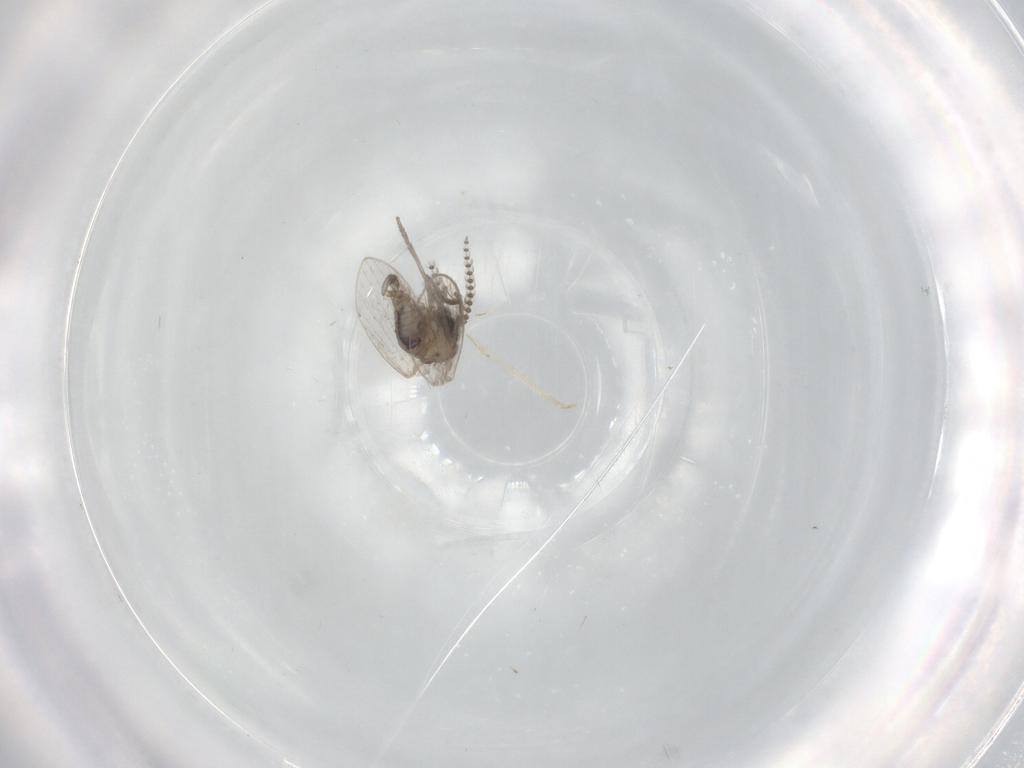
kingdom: Animalia
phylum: Arthropoda
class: Insecta
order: Diptera
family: Psychodidae
